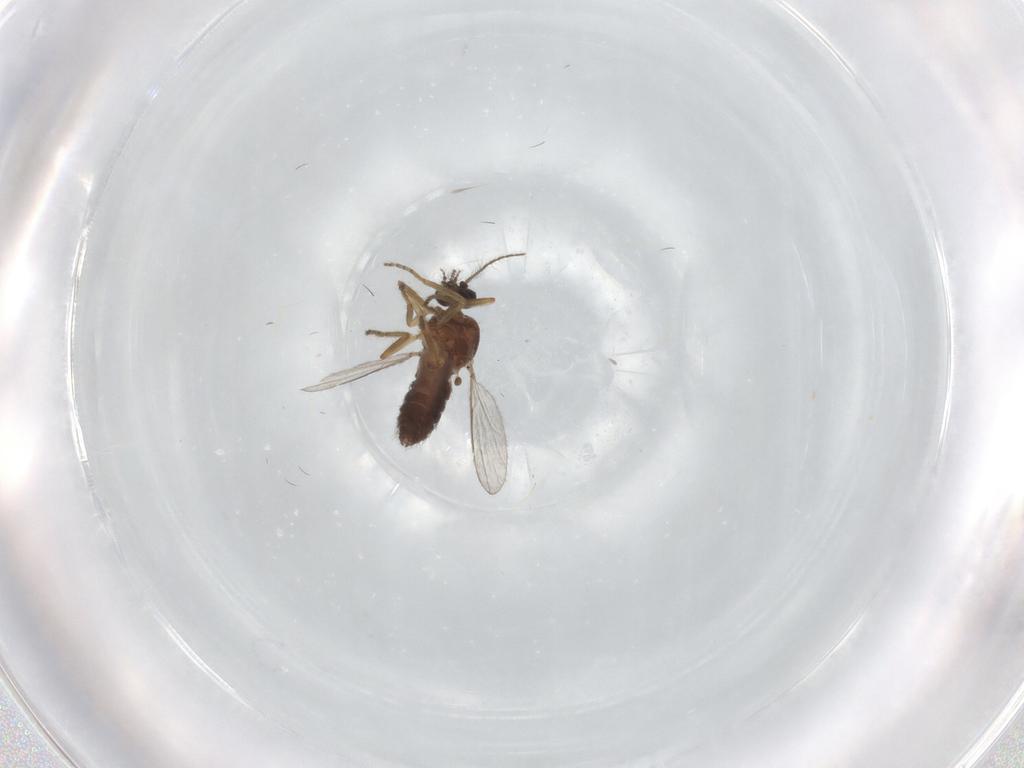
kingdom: Animalia
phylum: Arthropoda
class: Insecta
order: Diptera
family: Ceratopogonidae
